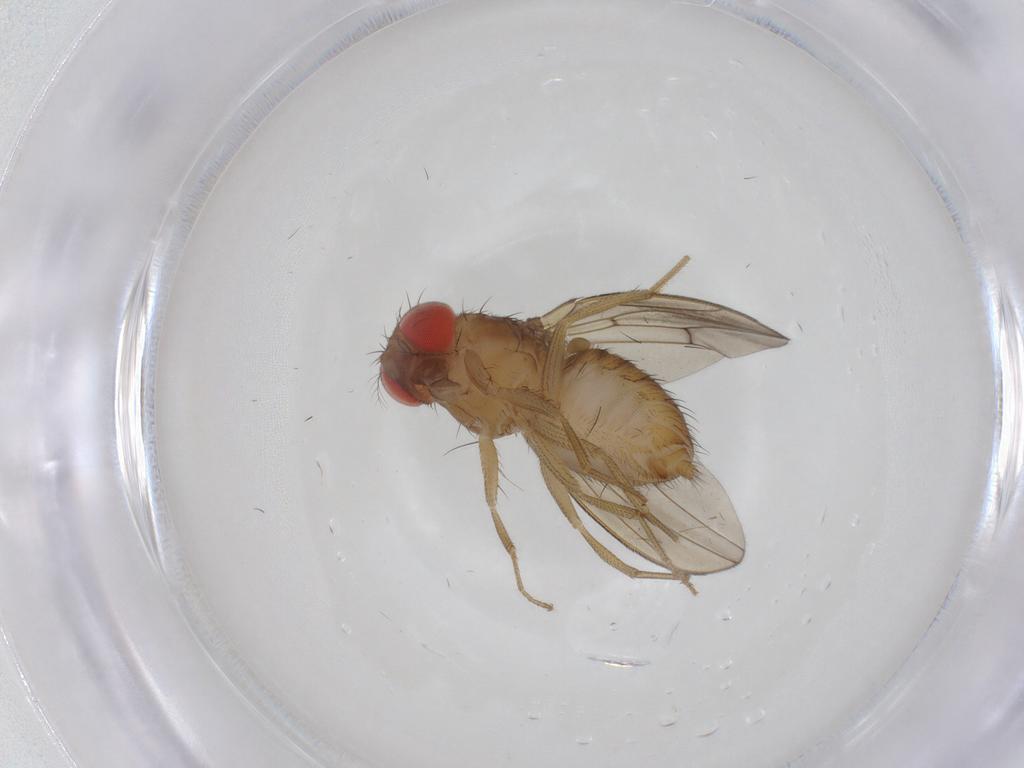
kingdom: Animalia
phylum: Arthropoda
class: Insecta
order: Diptera
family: Drosophilidae
